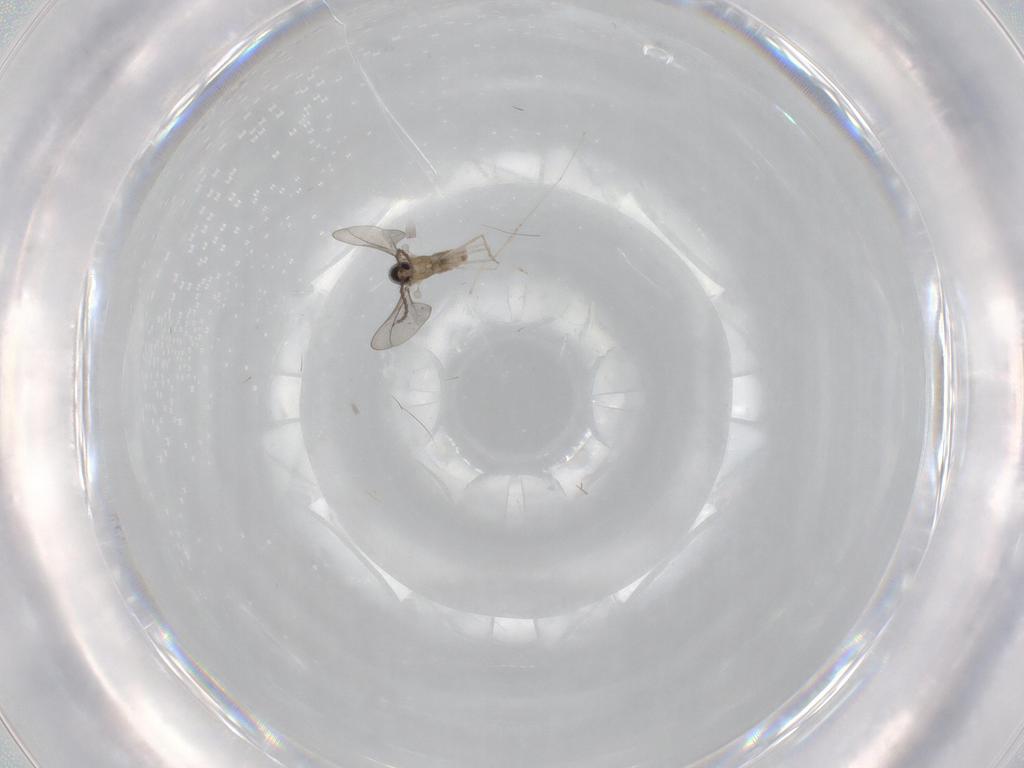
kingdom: Animalia
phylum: Arthropoda
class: Insecta
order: Diptera
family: Cecidomyiidae
